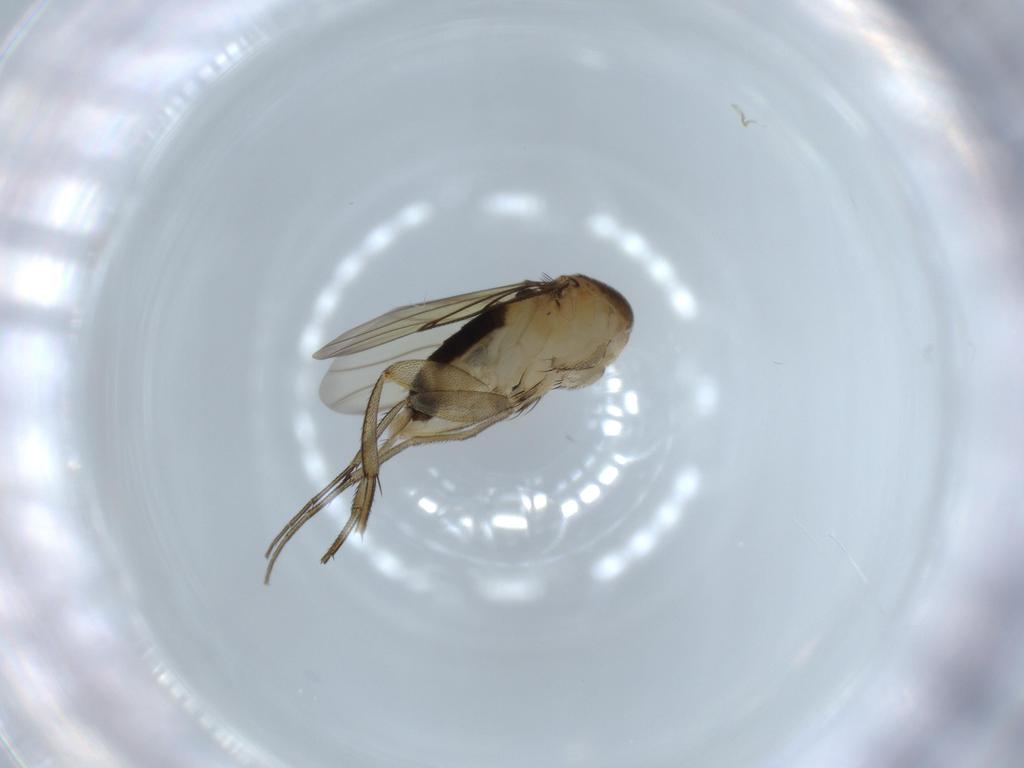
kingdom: Animalia
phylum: Arthropoda
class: Insecta
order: Diptera
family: Phoridae
